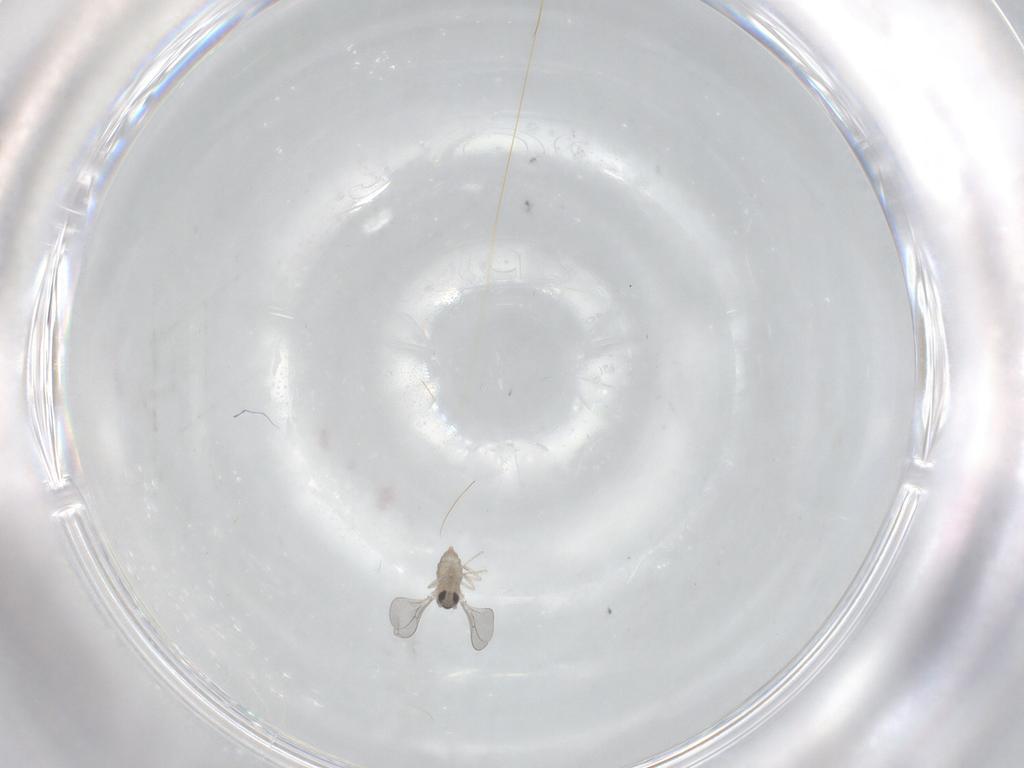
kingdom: Animalia
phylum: Arthropoda
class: Insecta
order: Diptera
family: Cecidomyiidae
